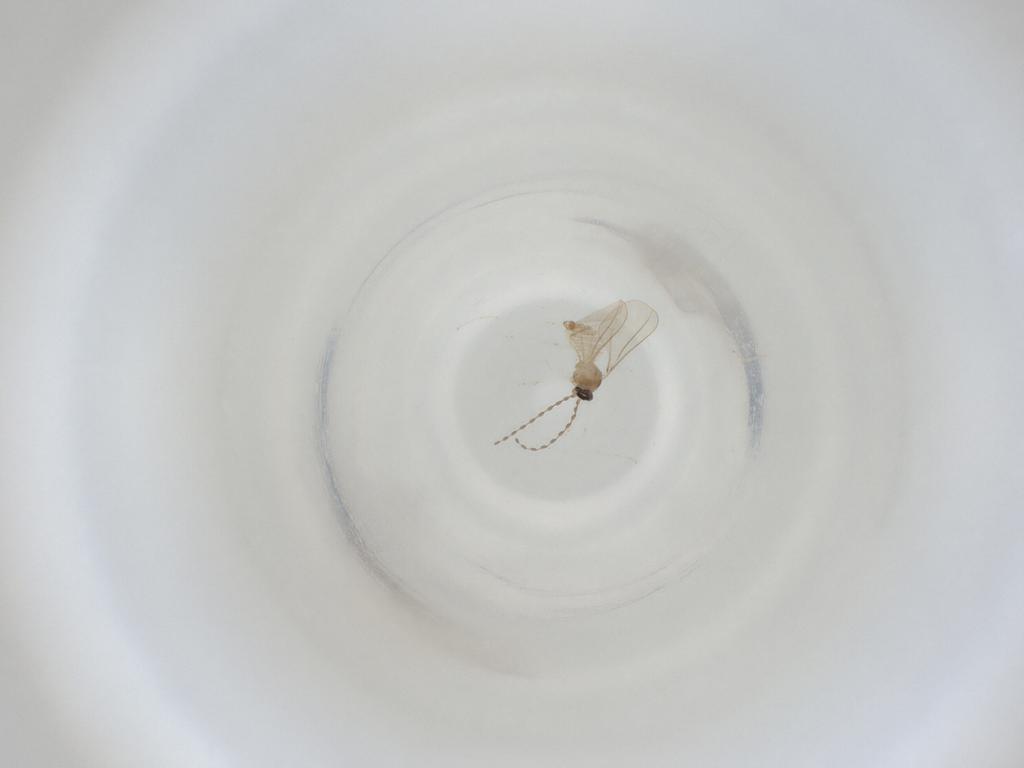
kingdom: Animalia
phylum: Arthropoda
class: Insecta
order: Diptera
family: Cecidomyiidae
